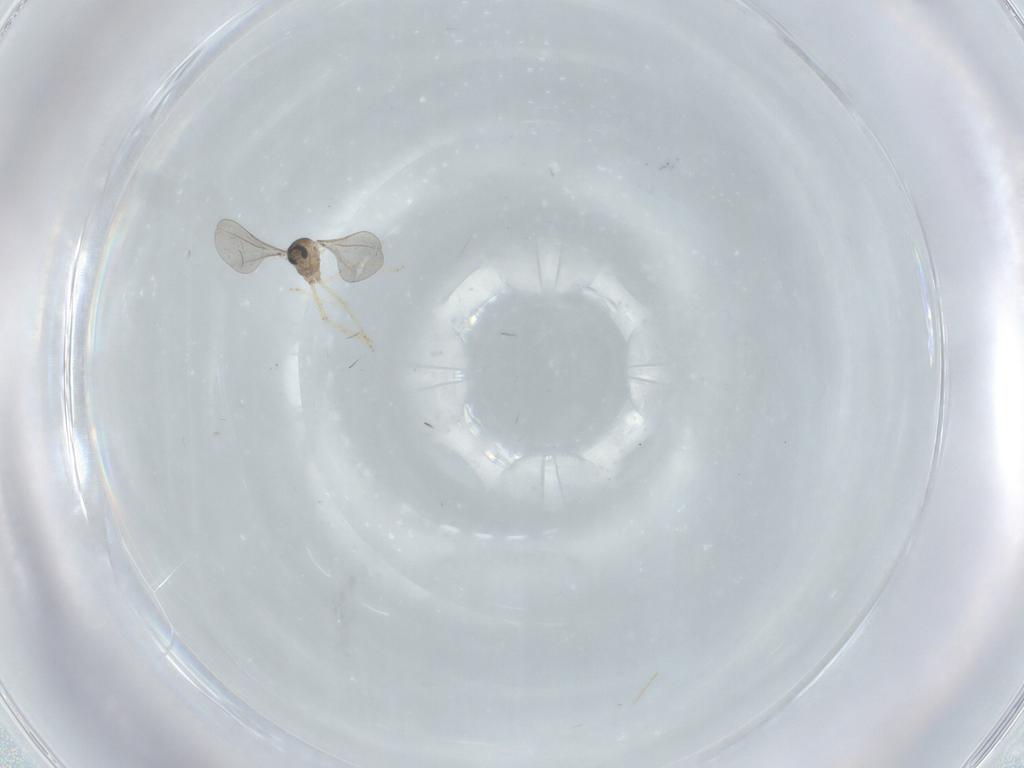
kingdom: Animalia
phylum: Arthropoda
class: Insecta
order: Diptera
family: Cecidomyiidae
